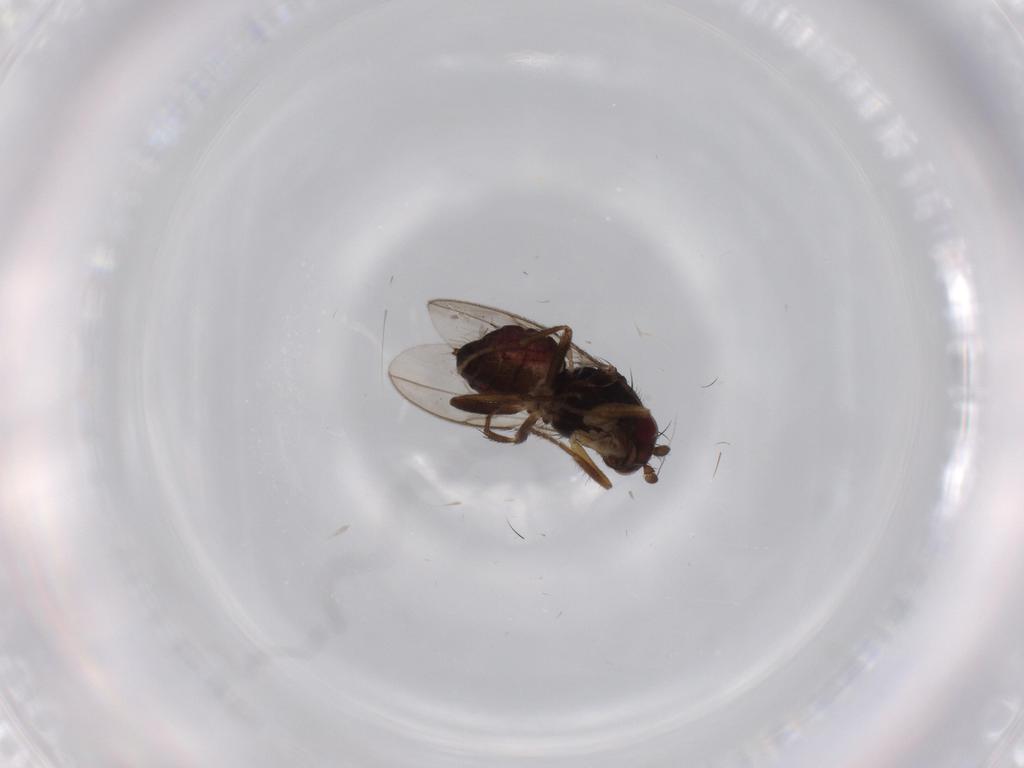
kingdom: Animalia
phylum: Arthropoda
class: Insecta
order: Diptera
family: Sphaeroceridae
